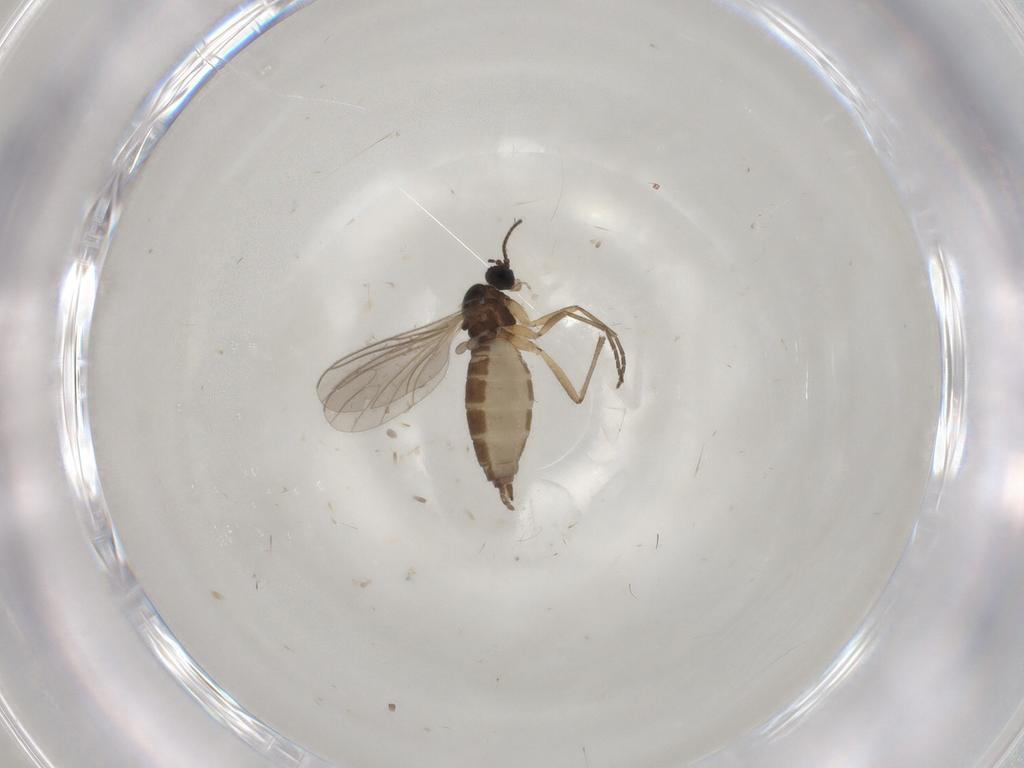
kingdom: Animalia
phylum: Arthropoda
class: Insecta
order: Diptera
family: Sciaridae
